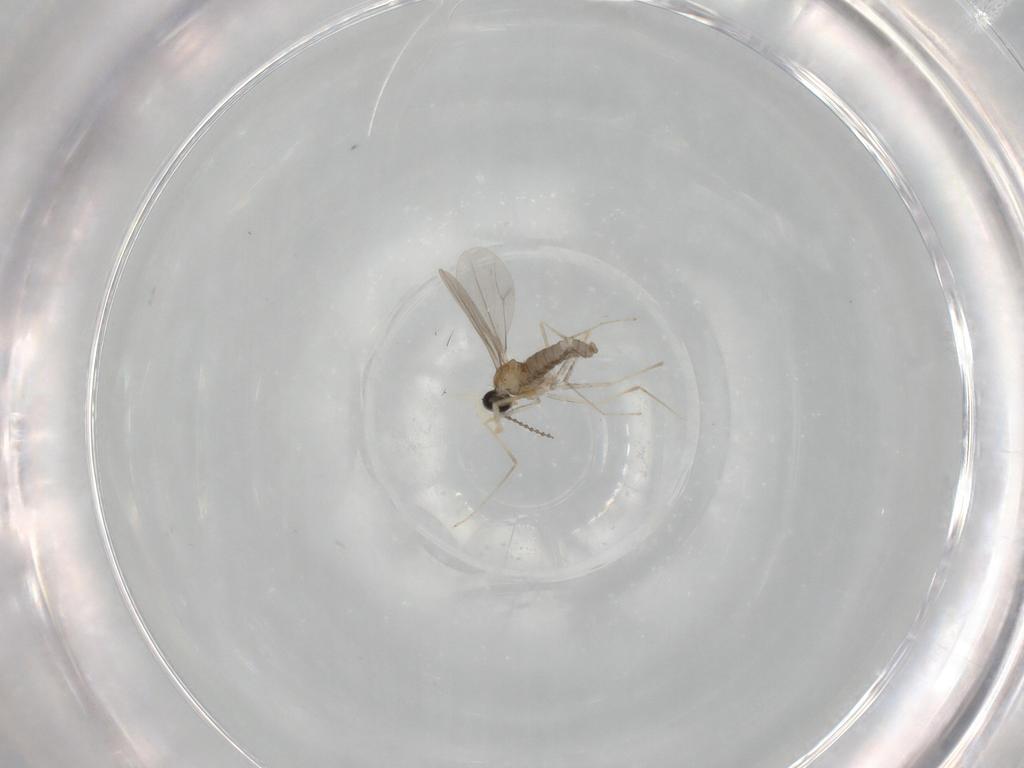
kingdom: Animalia
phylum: Arthropoda
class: Insecta
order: Diptera
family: Cecidomyiidae
